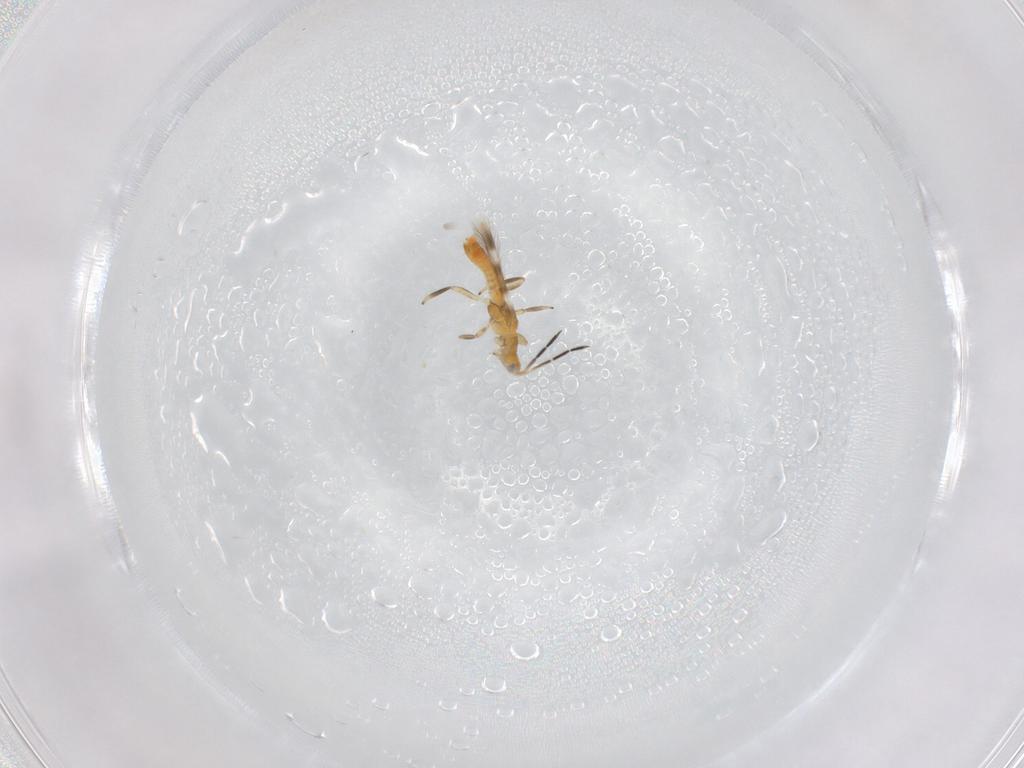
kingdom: Animalia
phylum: Arthropoda
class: Insecta
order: Thysanoptera
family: Aeolothripidae
